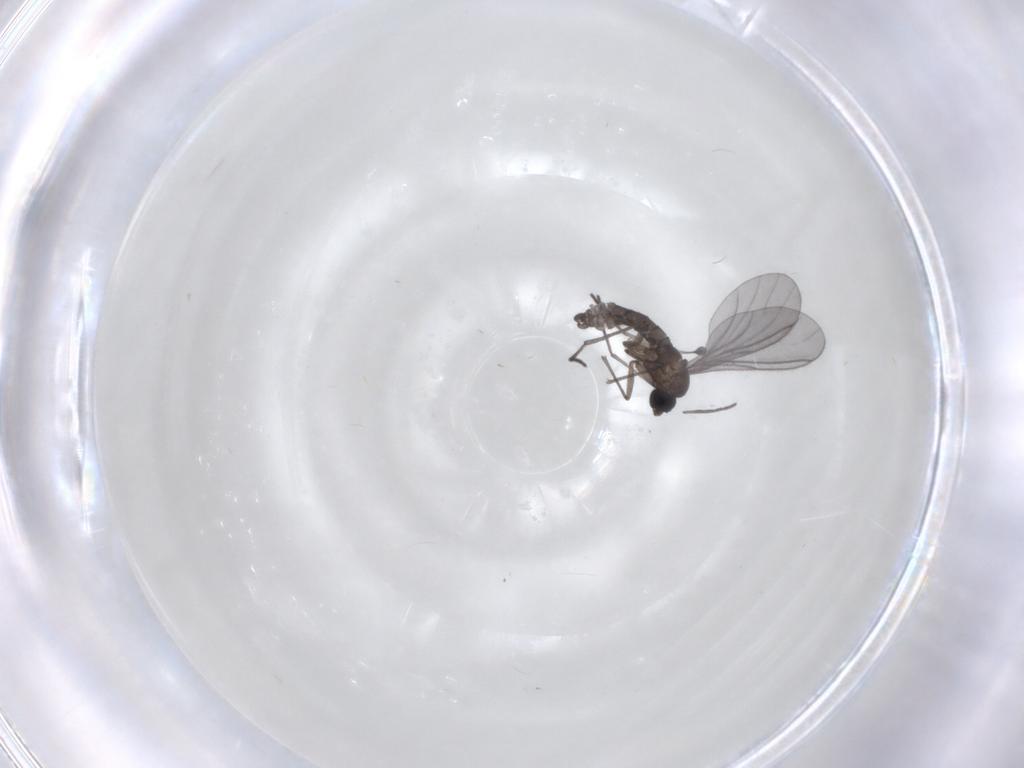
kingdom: Animalia
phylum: Arthropoda
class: Insecta
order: Diptera
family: Sciaridae
